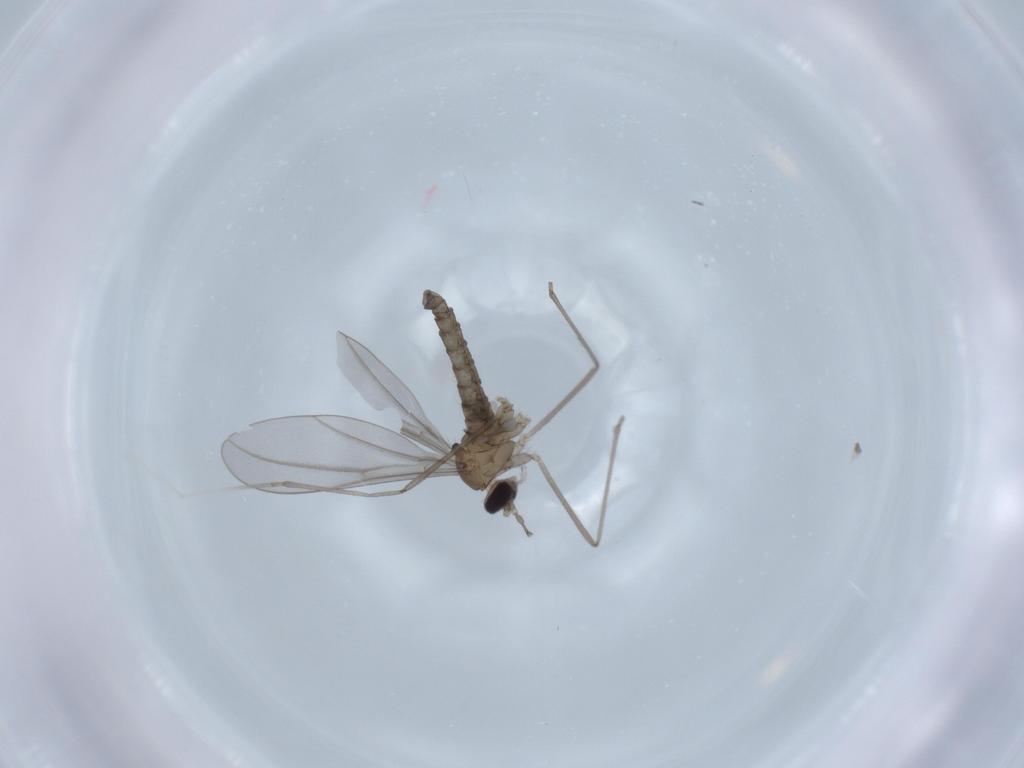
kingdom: Animalia
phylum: Arthropoda
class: Insecta
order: Diptera
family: Cecidomyiidae
